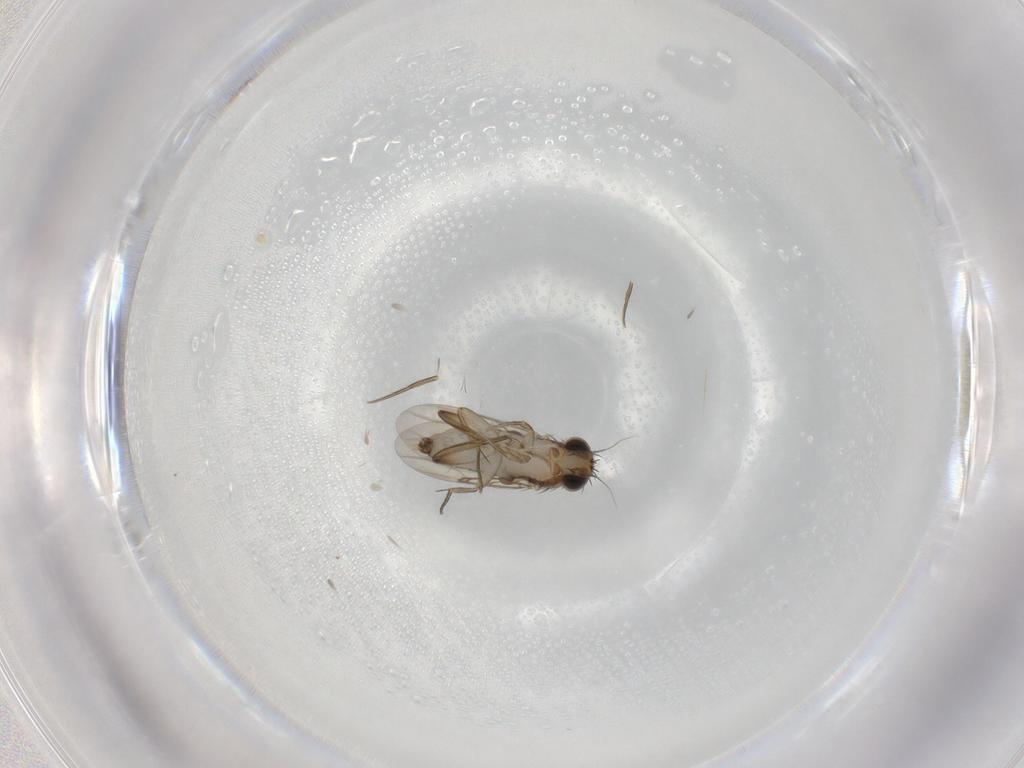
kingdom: Animalia
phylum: Arthropoda
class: Insecta
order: Diptera
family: Phoridae
